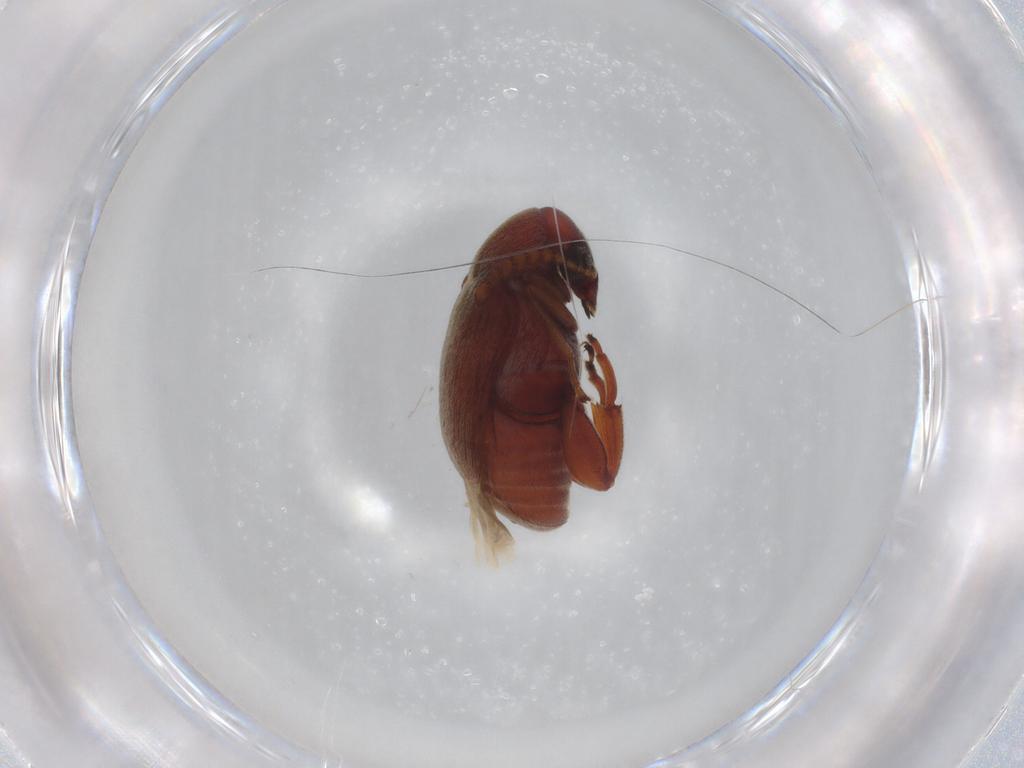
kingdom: Animalia
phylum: Arthropoda
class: Insecta
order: Coleoptera
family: Chrysomelidae
